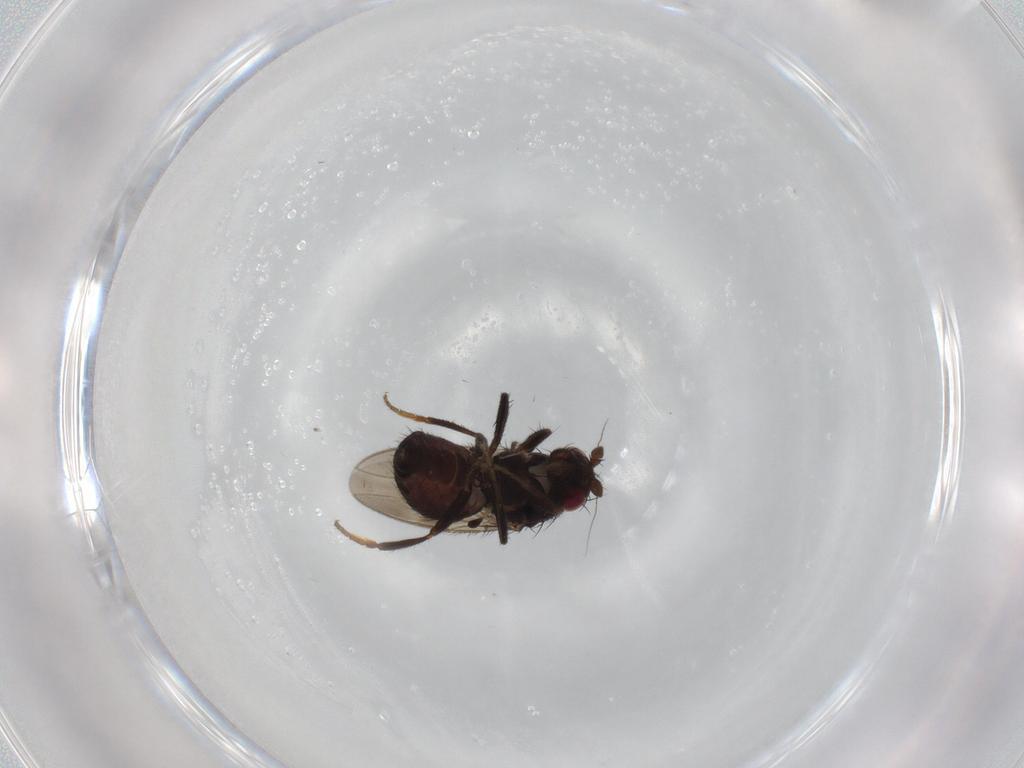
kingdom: Animalia
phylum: Arthropoda
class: Insecta
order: Diptera
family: Sphaeroceridae
